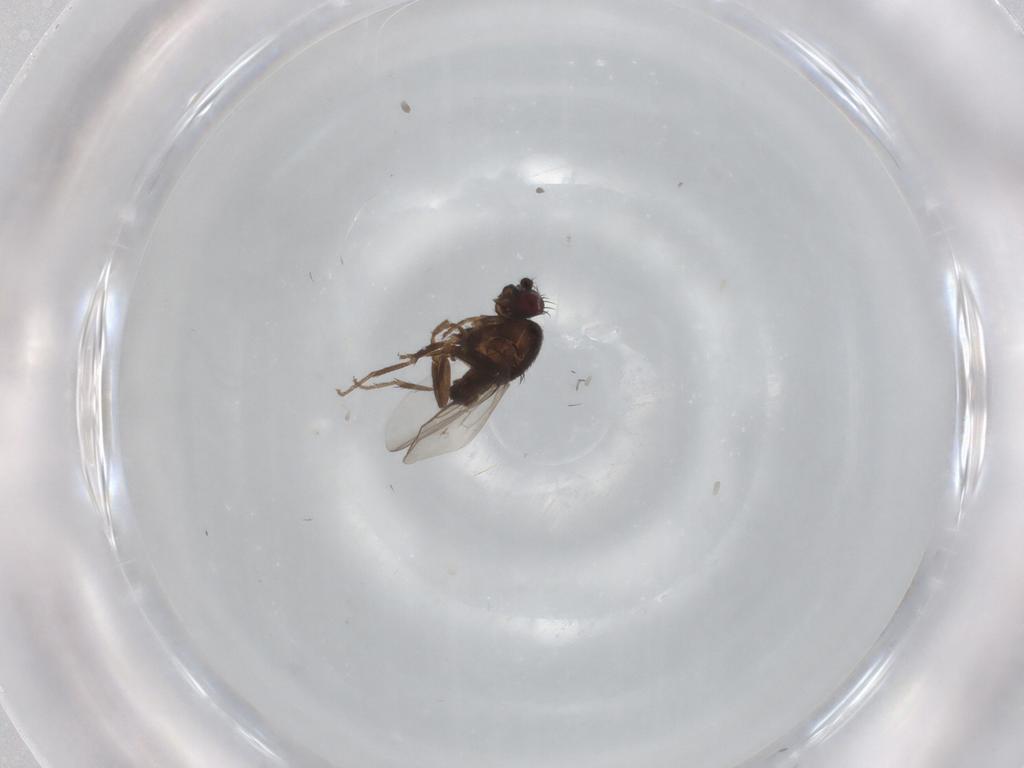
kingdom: Animalia
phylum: Arthropoda
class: Insecta
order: Diptera
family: Sphaeroceridae
